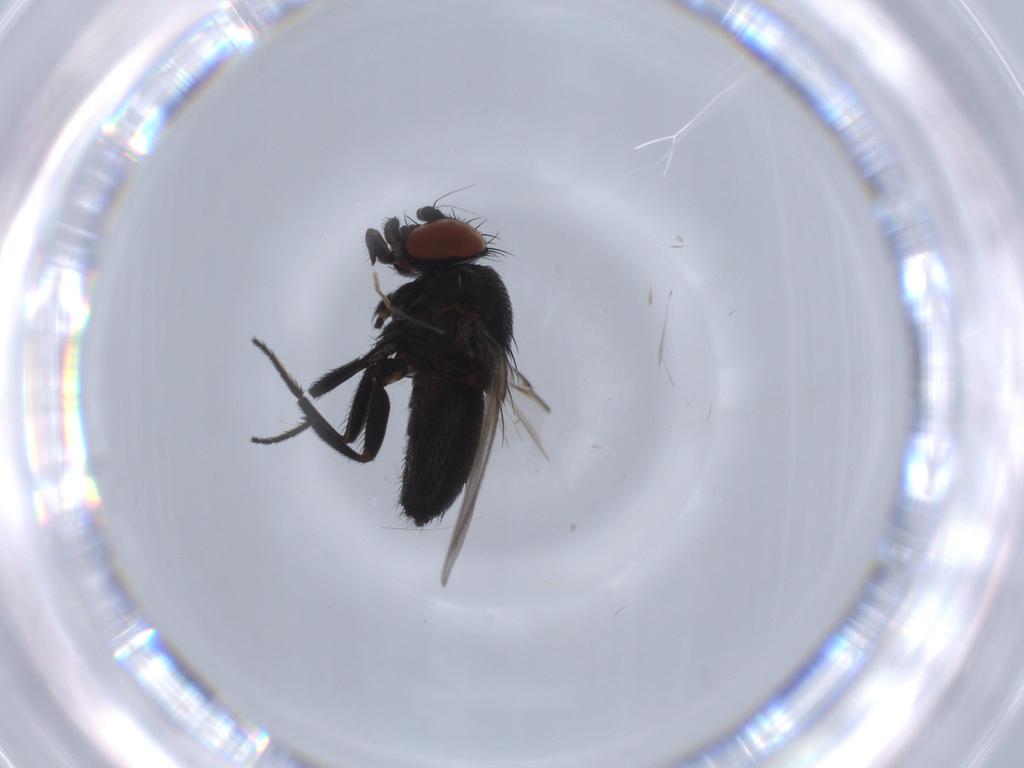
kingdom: Animalia
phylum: Arthropoda
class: Insecta
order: Diptera
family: Milichiidae
